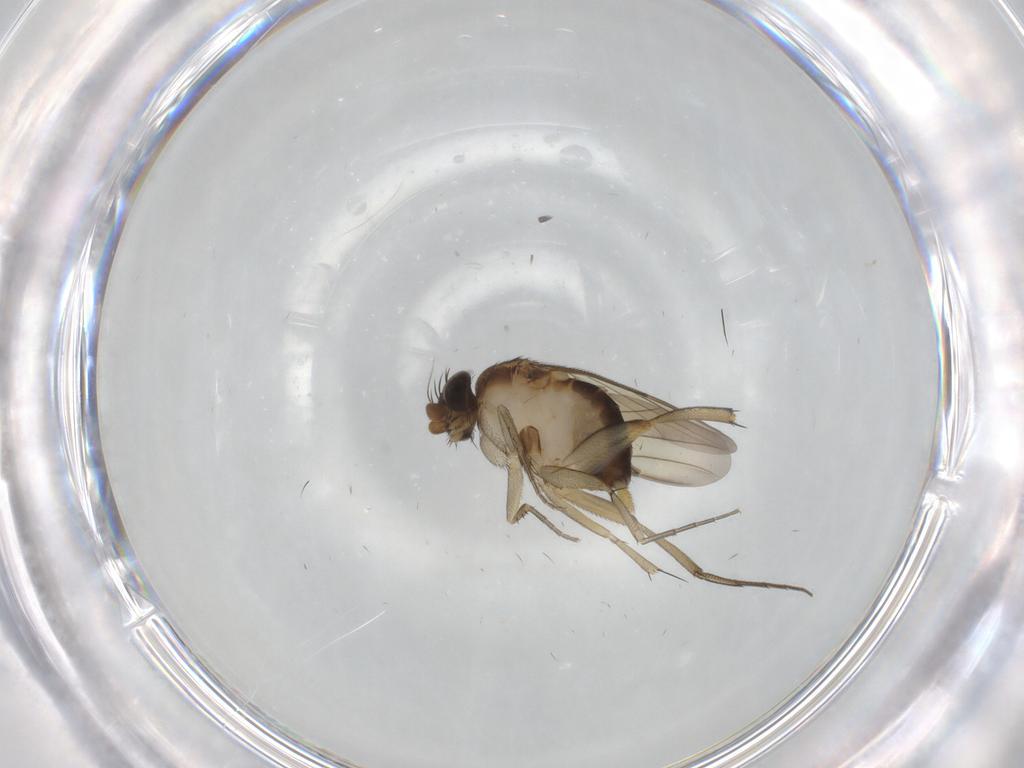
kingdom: Animalia
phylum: Arthropoda
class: Insecta
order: Diptera
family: Phoridae
